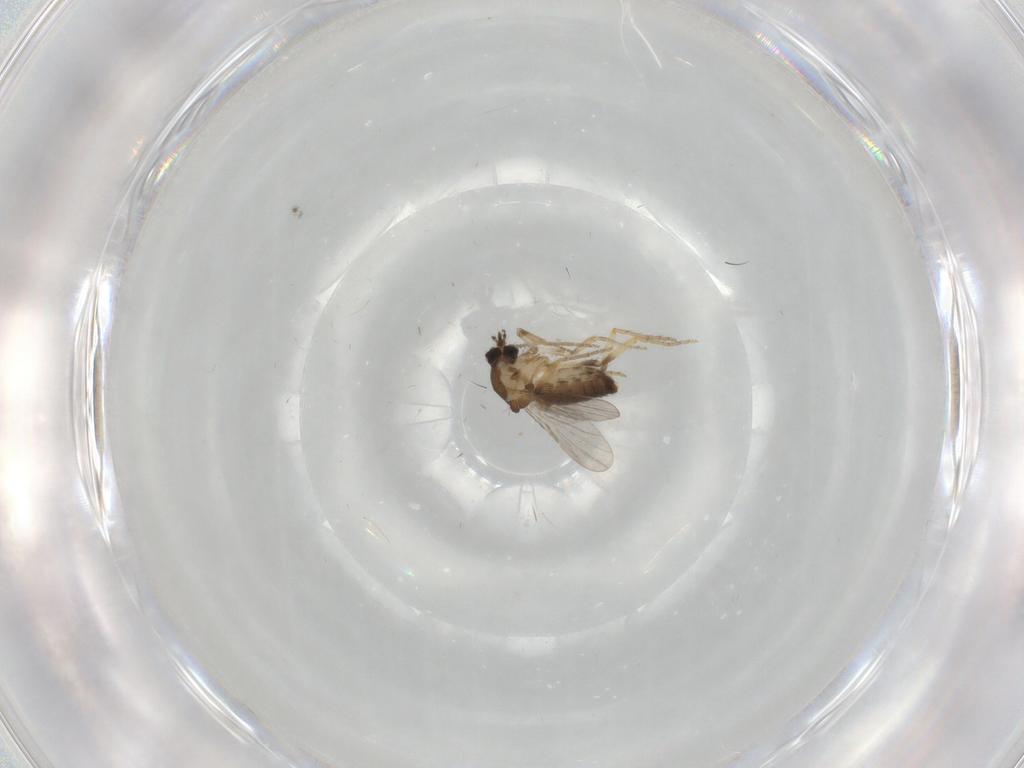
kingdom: Animalia
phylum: Arthropoda
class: Insecta
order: Diptera
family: Ceratopogonidae
